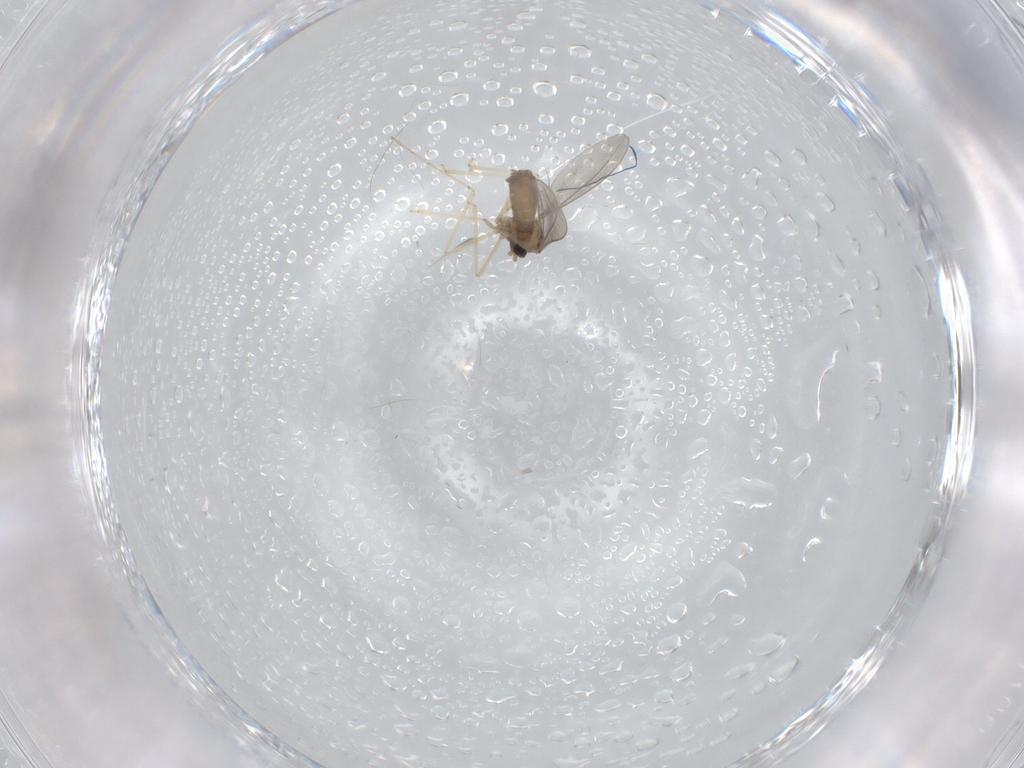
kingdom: Animalia
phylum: Arthropoda
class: Insecta
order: Diptera
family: Dolichopodidae
